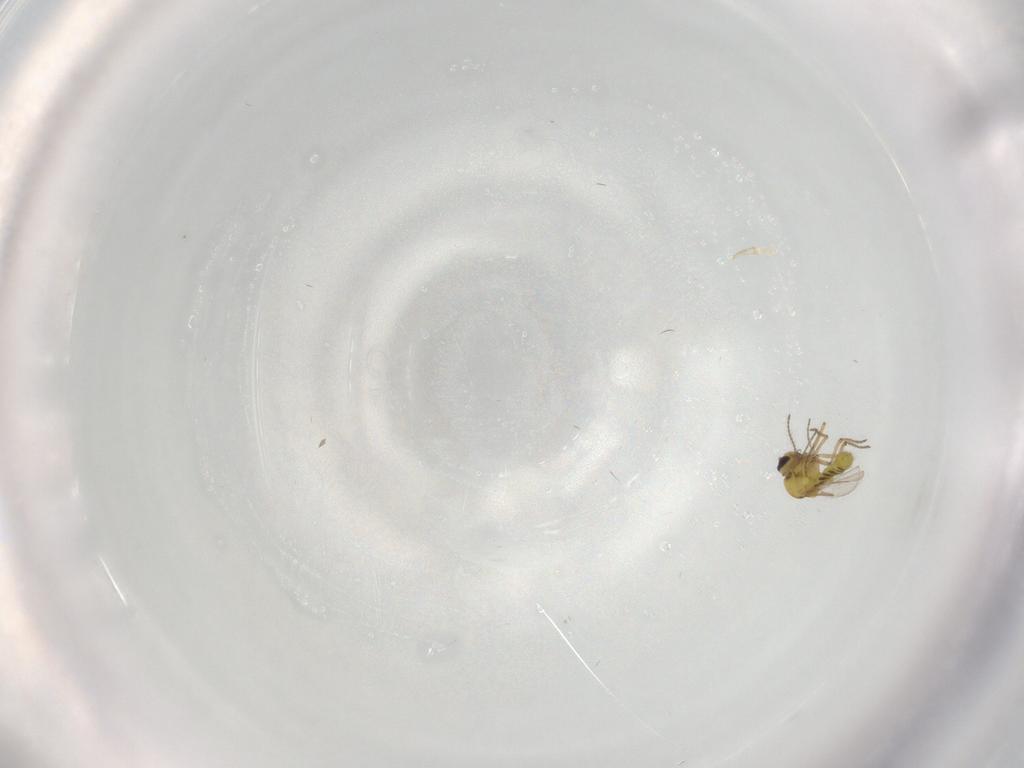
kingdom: Animalia
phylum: Arthropoda
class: Insecta
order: Diptera
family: Ceratopogonidae
